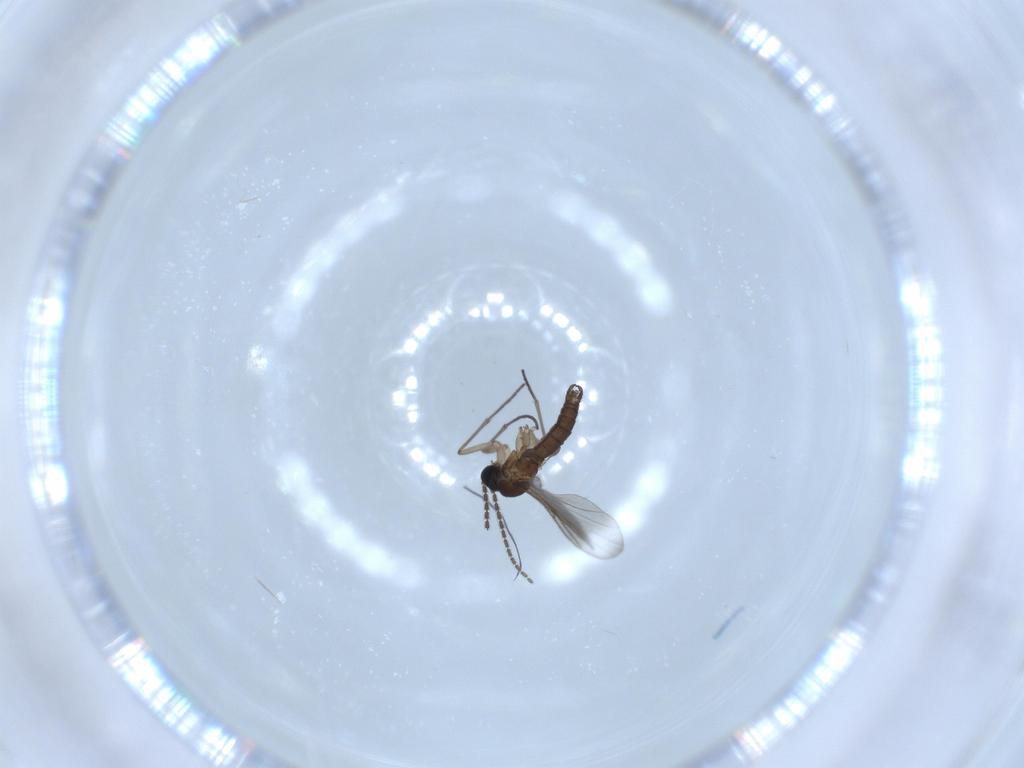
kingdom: Animalia
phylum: Arthropoda
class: Insecta
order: Diptera
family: Sciaridae
